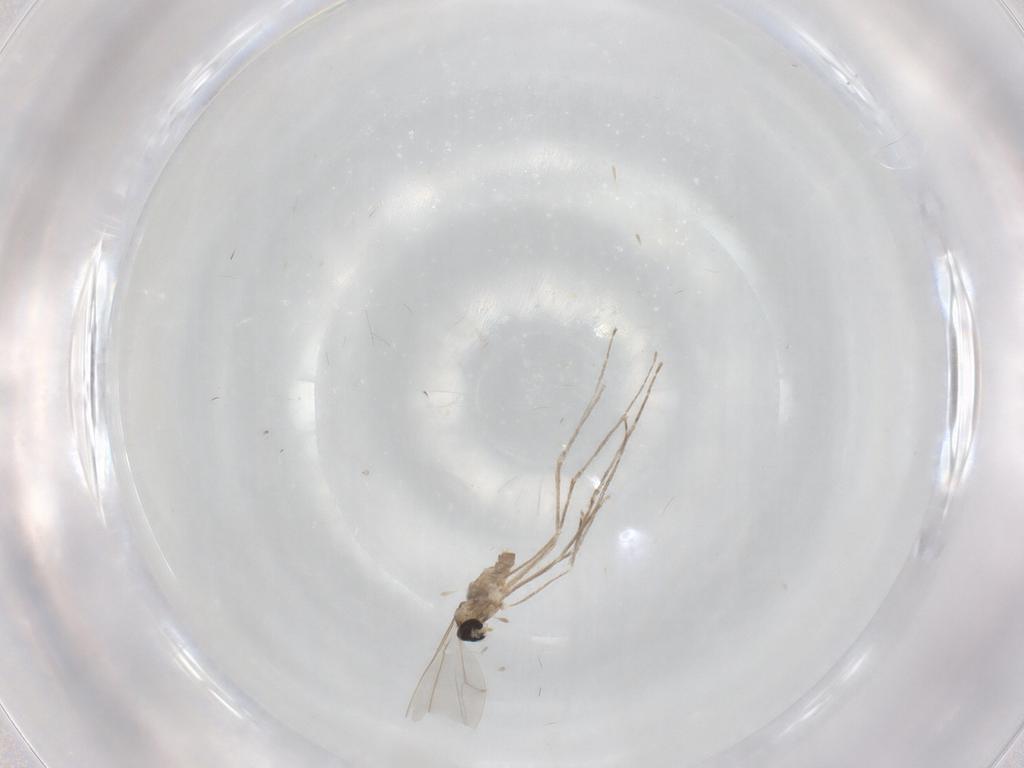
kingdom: Animalia
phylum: Arthropoda
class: Insecta
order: Diptera
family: Cecidomyiidae
